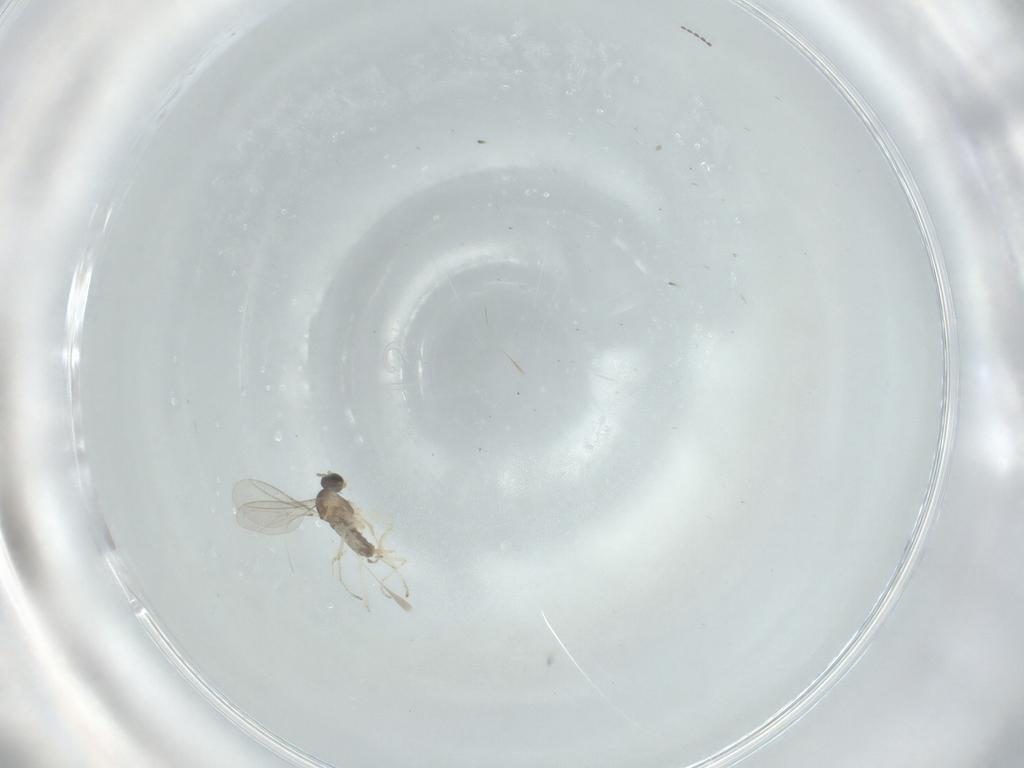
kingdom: Animalia
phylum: Arthropoda
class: Insecta
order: Diptera
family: Cecidomyiidae
